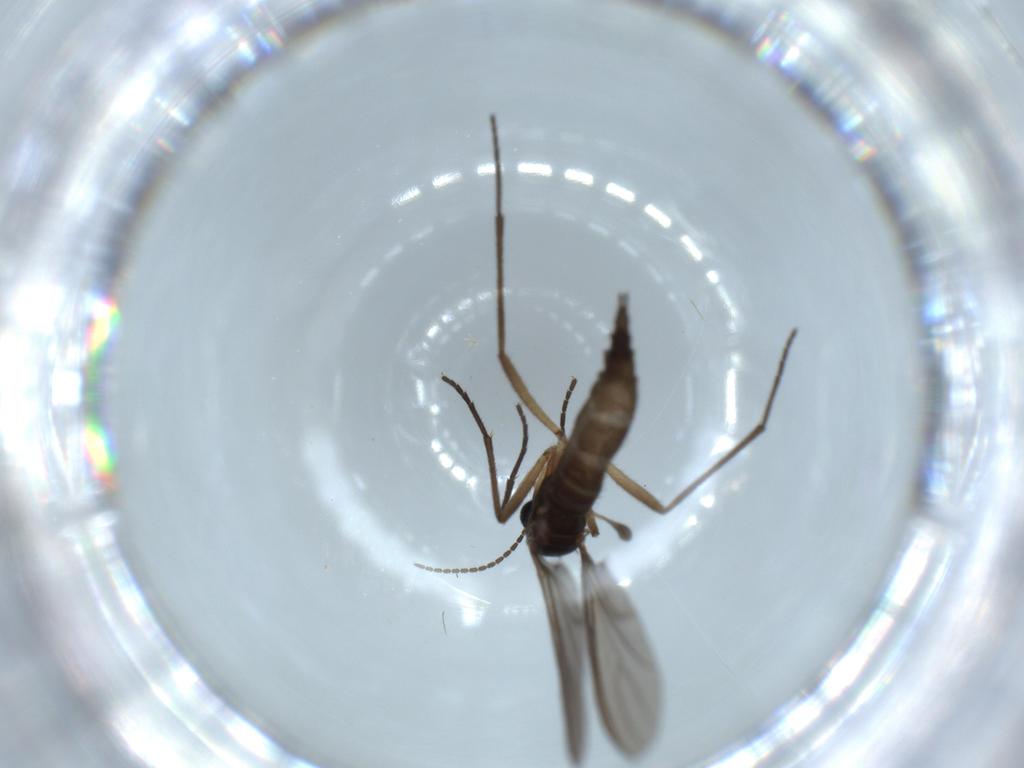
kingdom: Animalia
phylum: Arthropoda
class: Insecta
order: Diptera
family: Sciaridae
